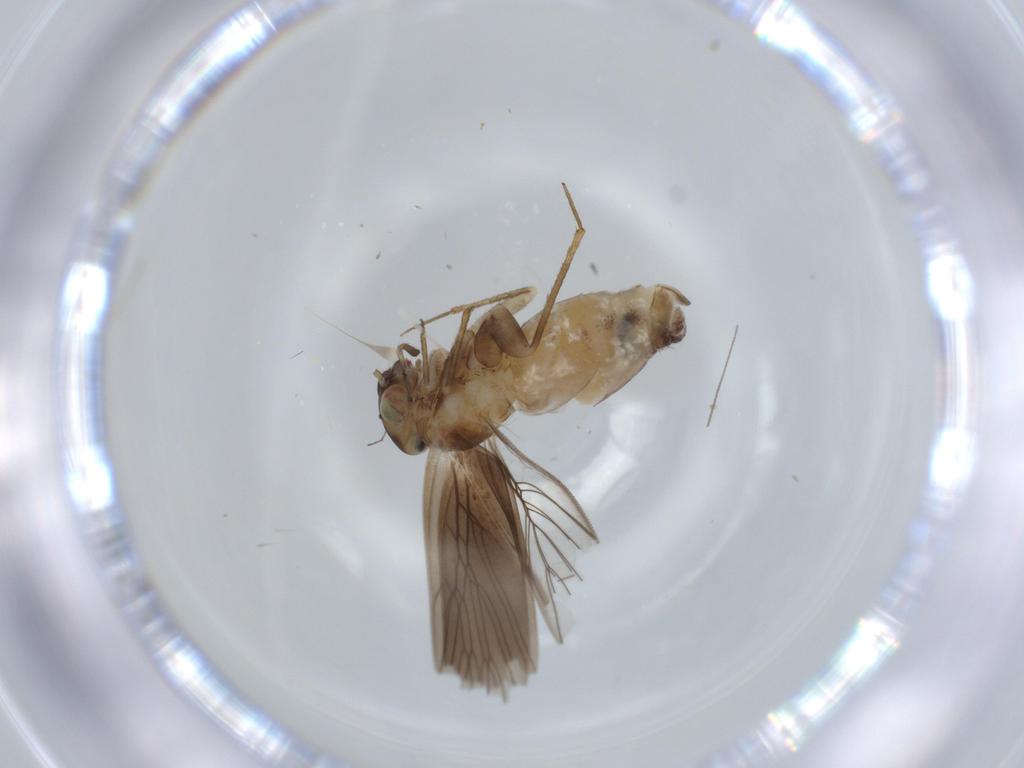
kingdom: Animalia
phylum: Arthropoda
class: Insecta
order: Psocodea
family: Lepidopsocidae
